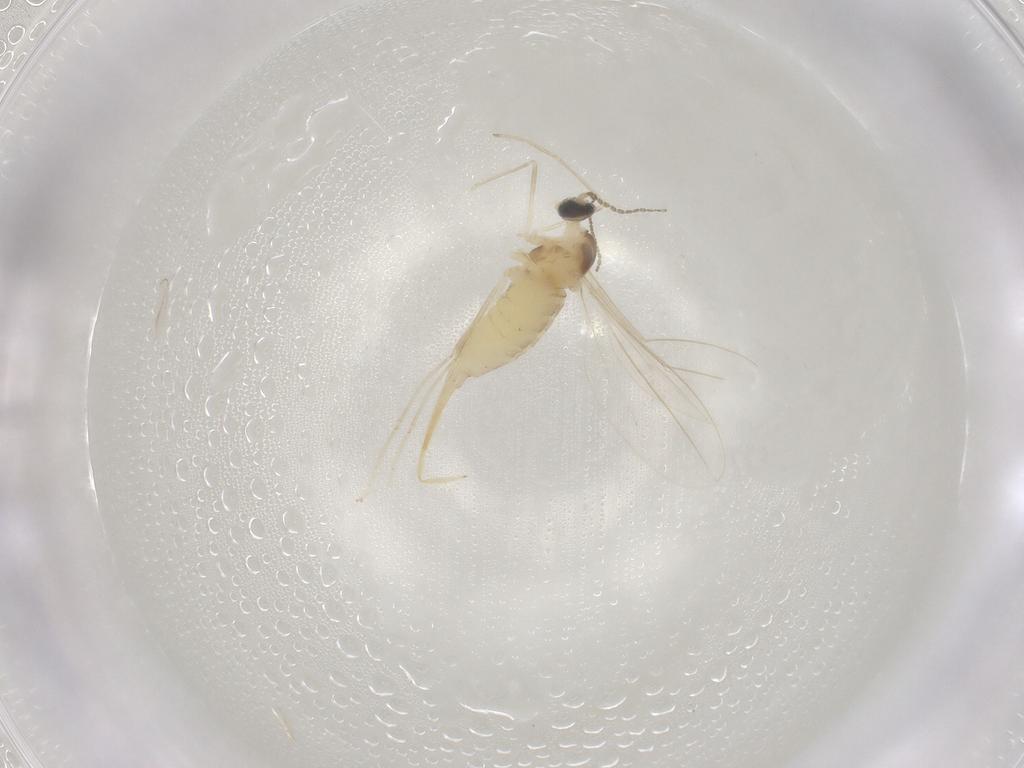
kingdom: Animalia
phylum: Arthropoda
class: Insecta
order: Diptera
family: Cecidomyiidae
